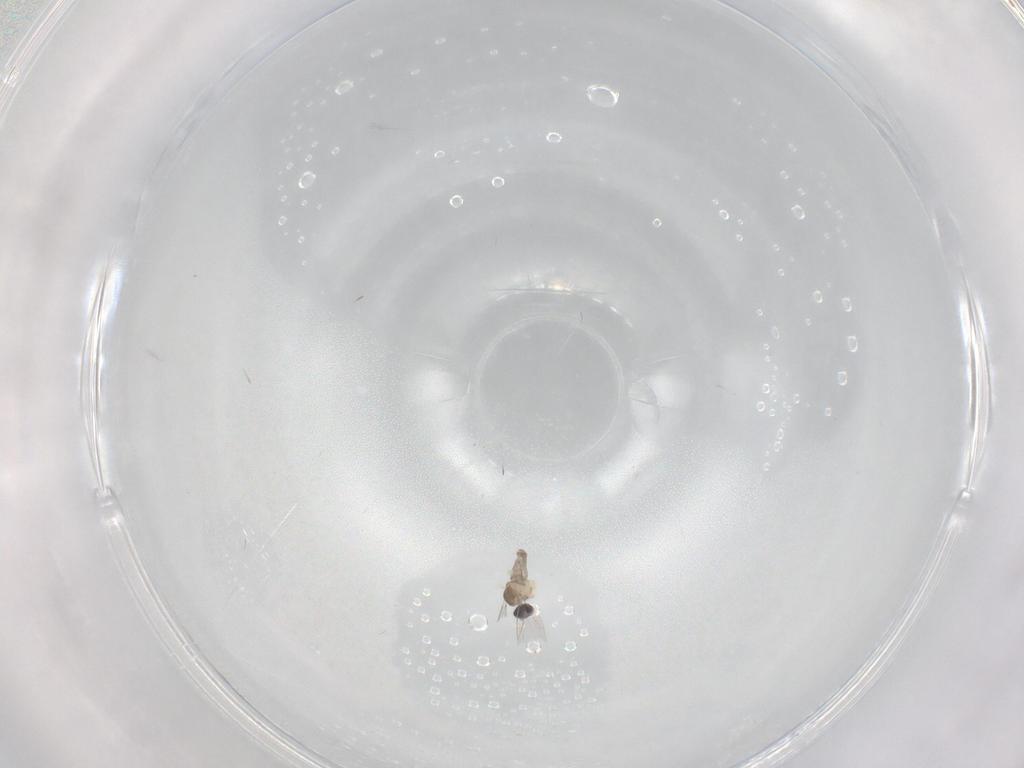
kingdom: Animalia
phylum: Arthropoda
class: Insecta
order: Diptera
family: Cecidomyiidae
